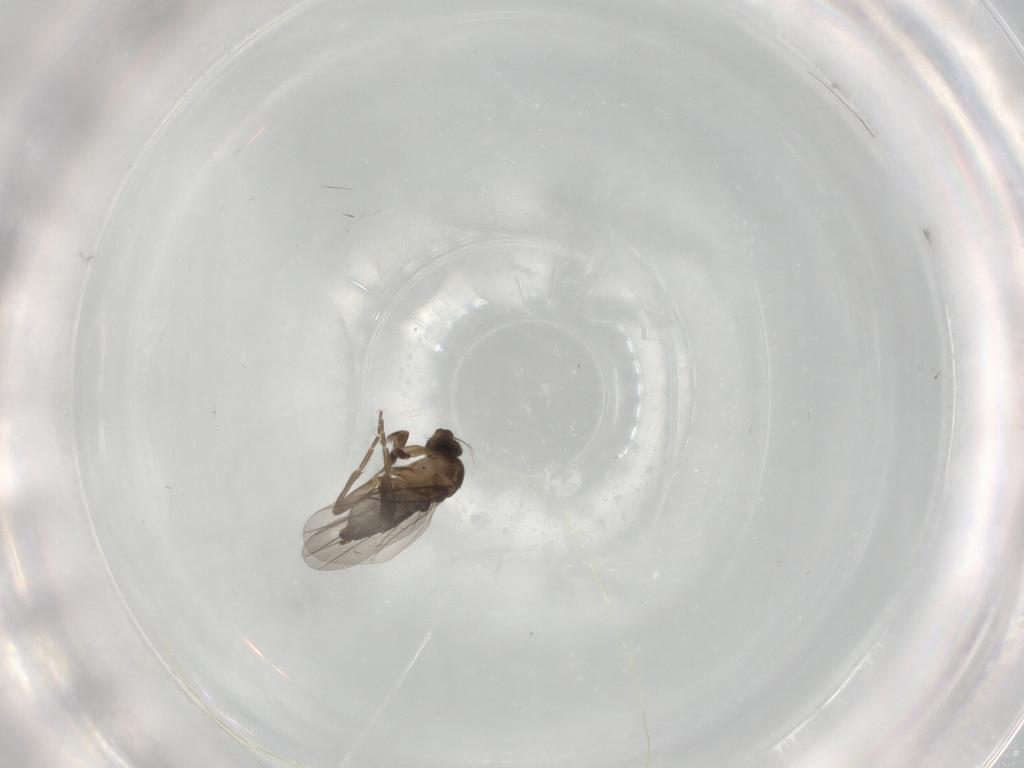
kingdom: Animalia
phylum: Arthropoda
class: Insecta
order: Diptera
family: Phoridae
